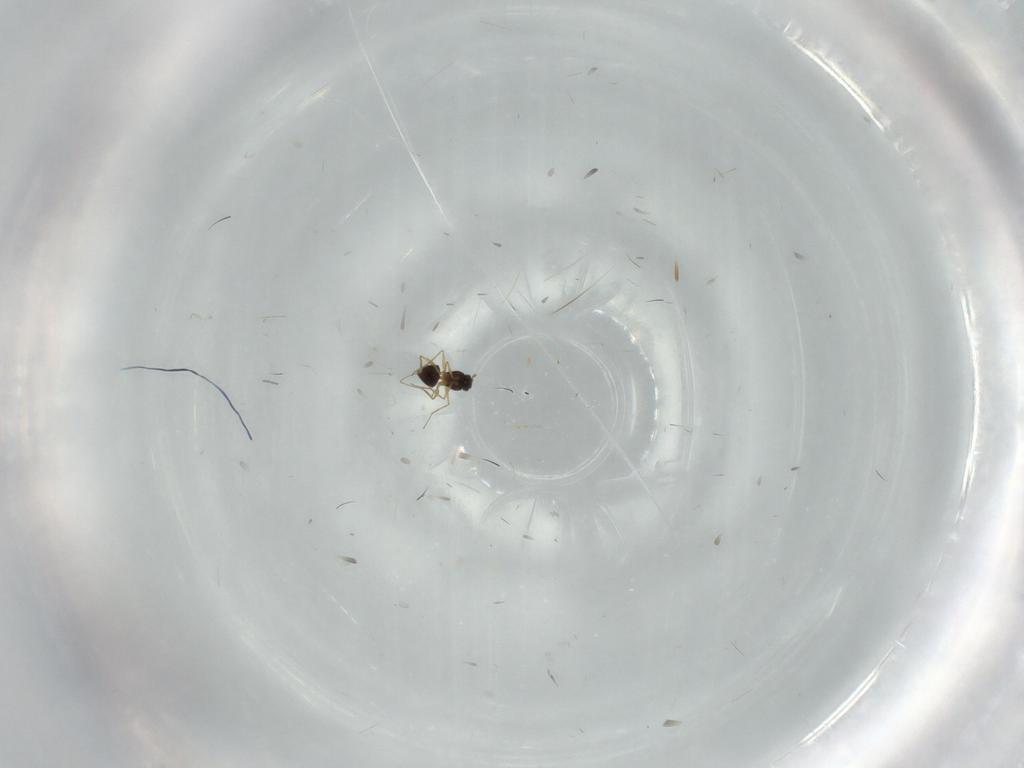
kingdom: Animalia
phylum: Arthropoda
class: Insecta
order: Hymenoptera
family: Mymaridae
